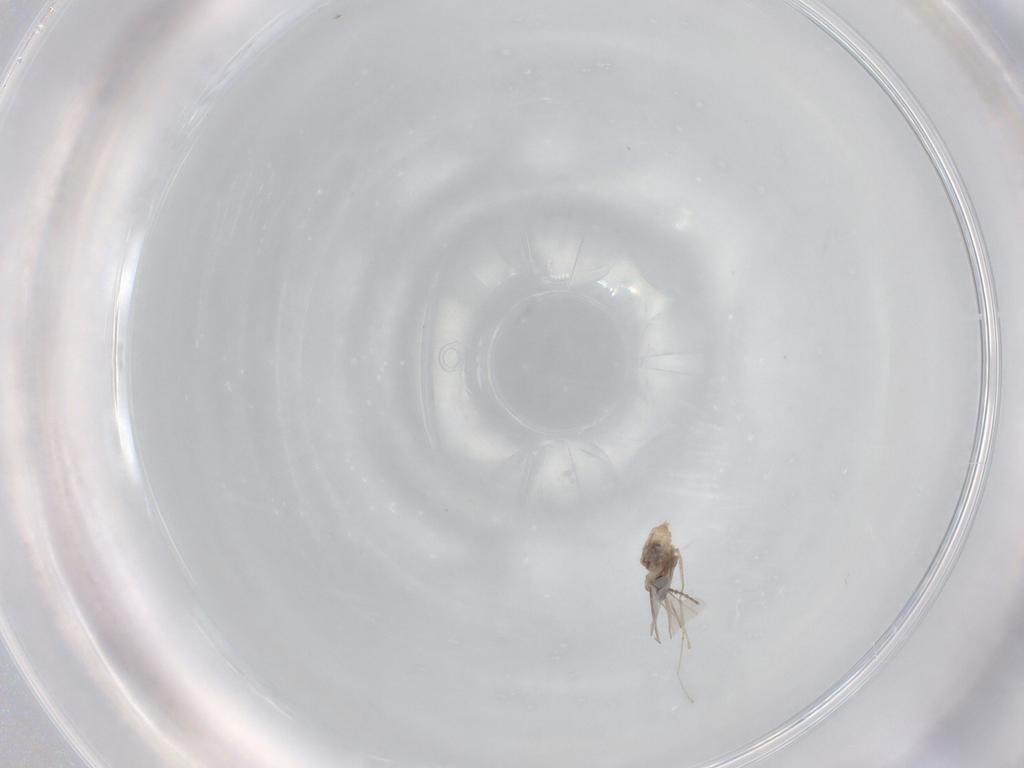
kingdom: Animalia
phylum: Arthropoda
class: Insecta
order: Diptera
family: Cecidomyiidae
